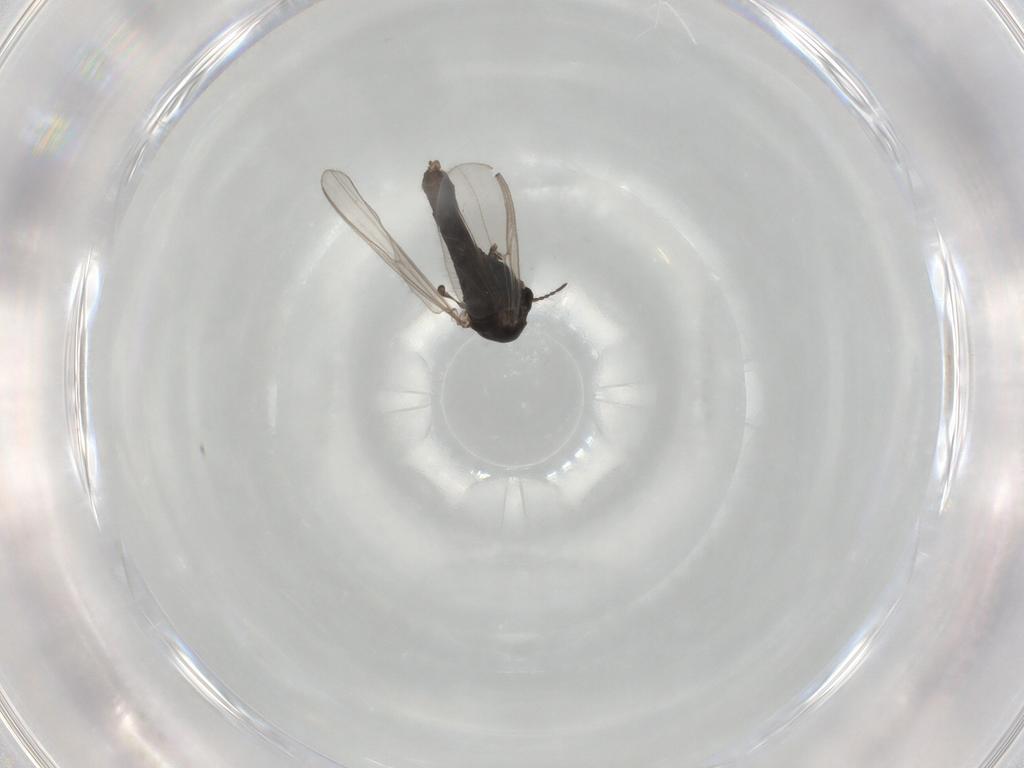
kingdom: Animalia
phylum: Arthropoda
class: Insecta
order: Diptera
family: Chironomidae
